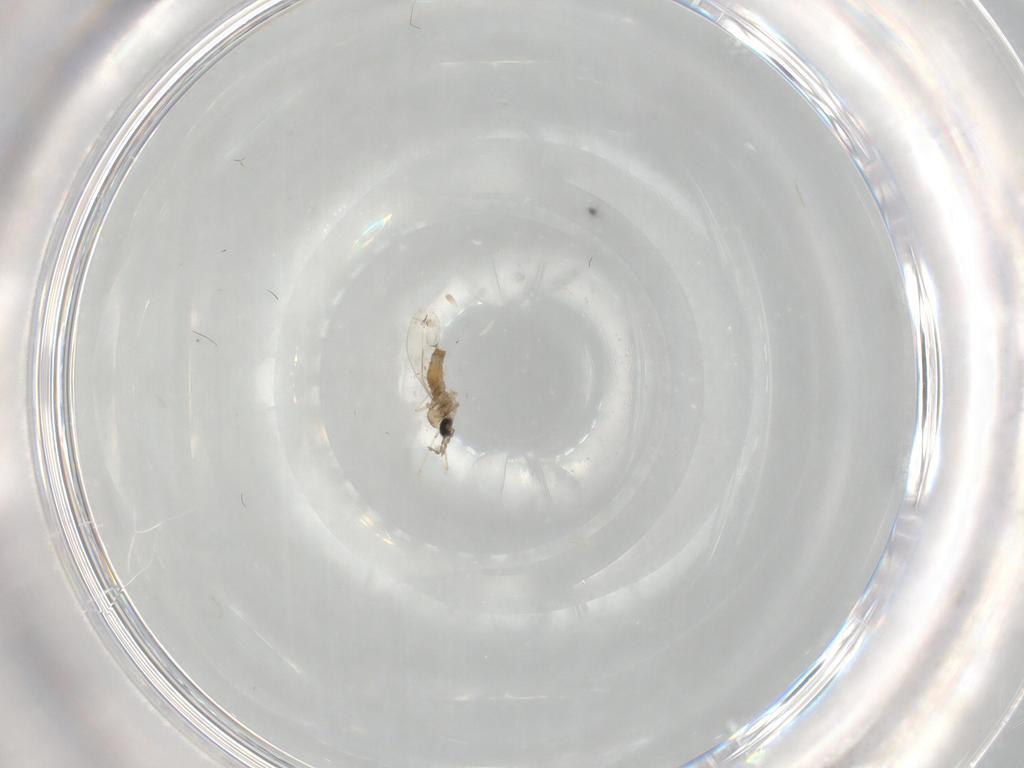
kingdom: Animalia
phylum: Arthropoda
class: Insecta
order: Diptera
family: Cecidomyiidae
